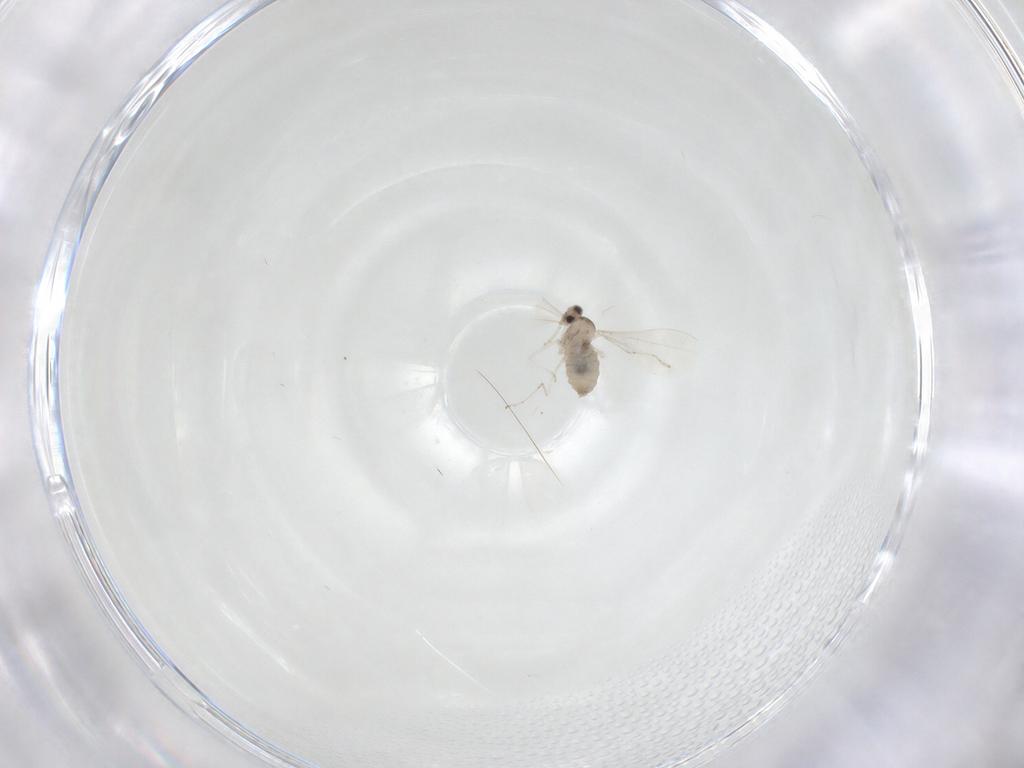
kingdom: Animalia
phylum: Arthropoda
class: Insecta
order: Diptera
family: Cecidomyiidae
